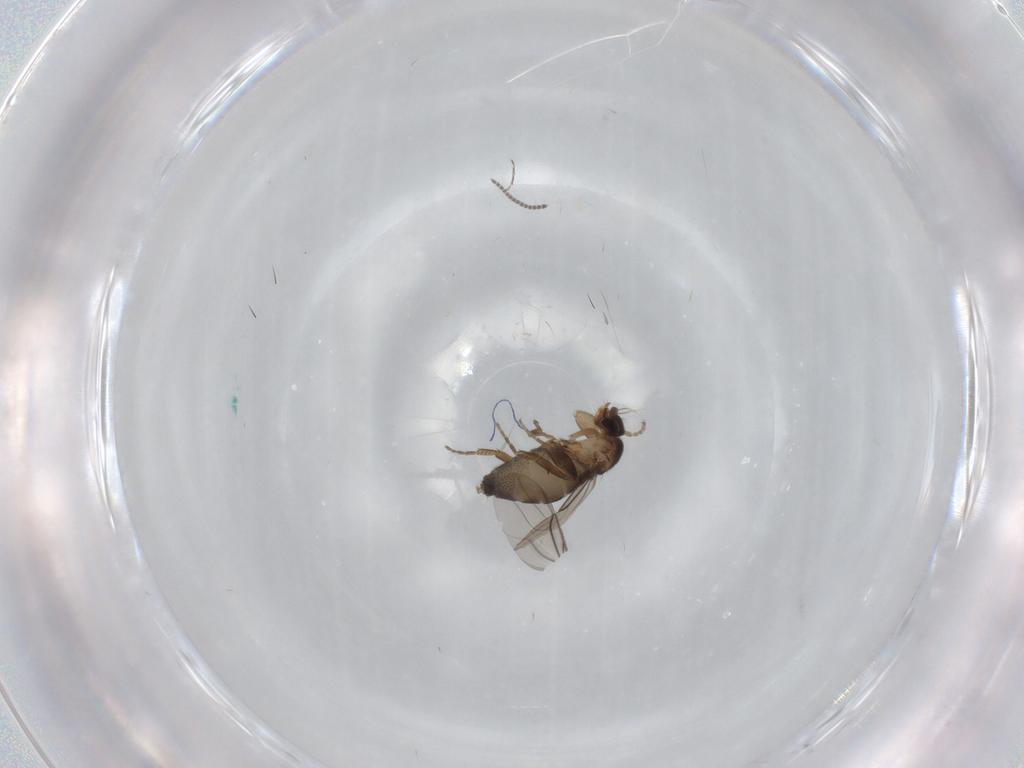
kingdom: Animalia
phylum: Arthropoda
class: Insecta
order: Diptera
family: Phoridae
